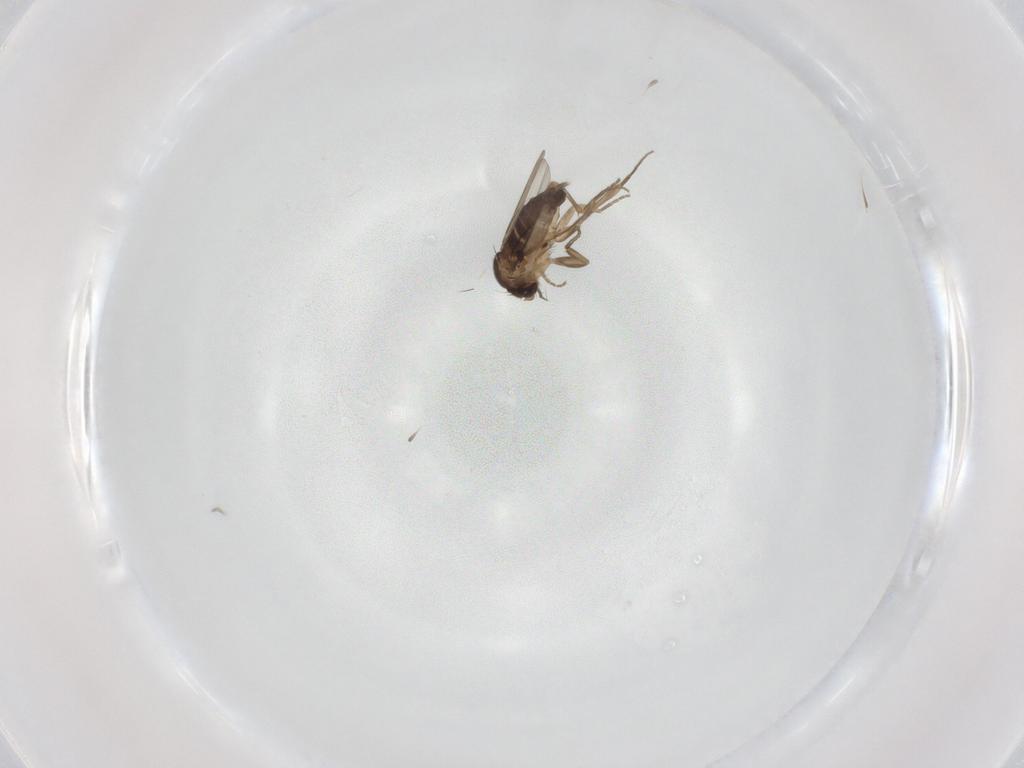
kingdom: Animalia
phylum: Arthropoda
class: Insecta
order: Diptera
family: Phoridae
